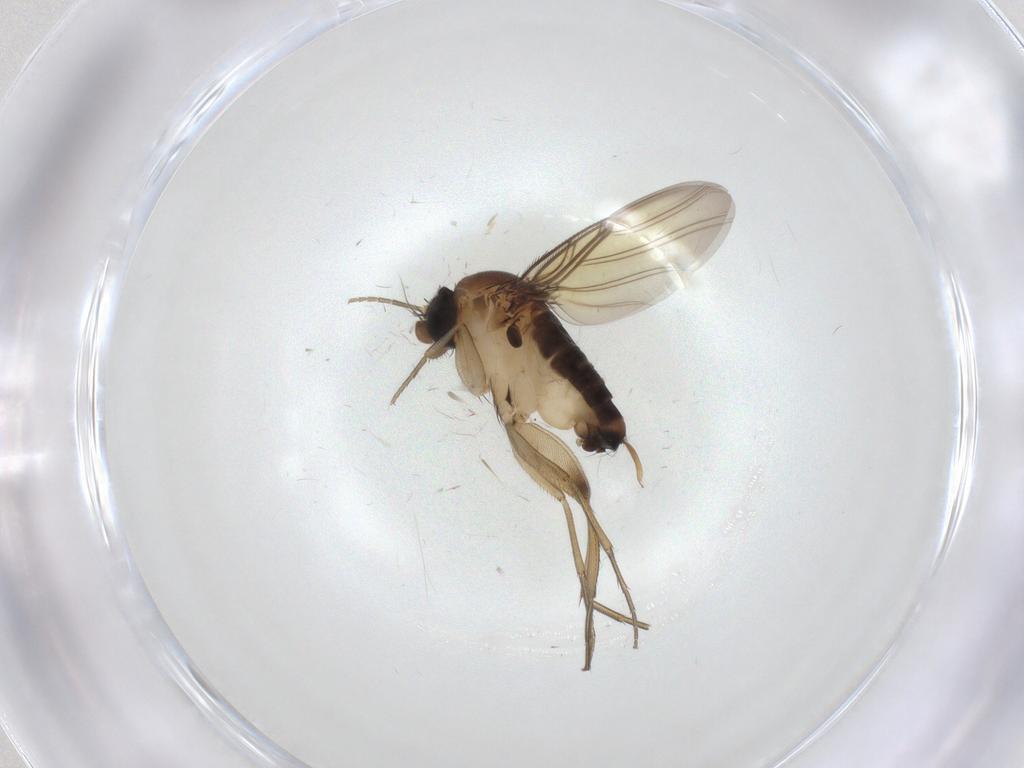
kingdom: Animalia
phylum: Arthropoda
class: Insecta
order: Diptera
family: Phoridae
